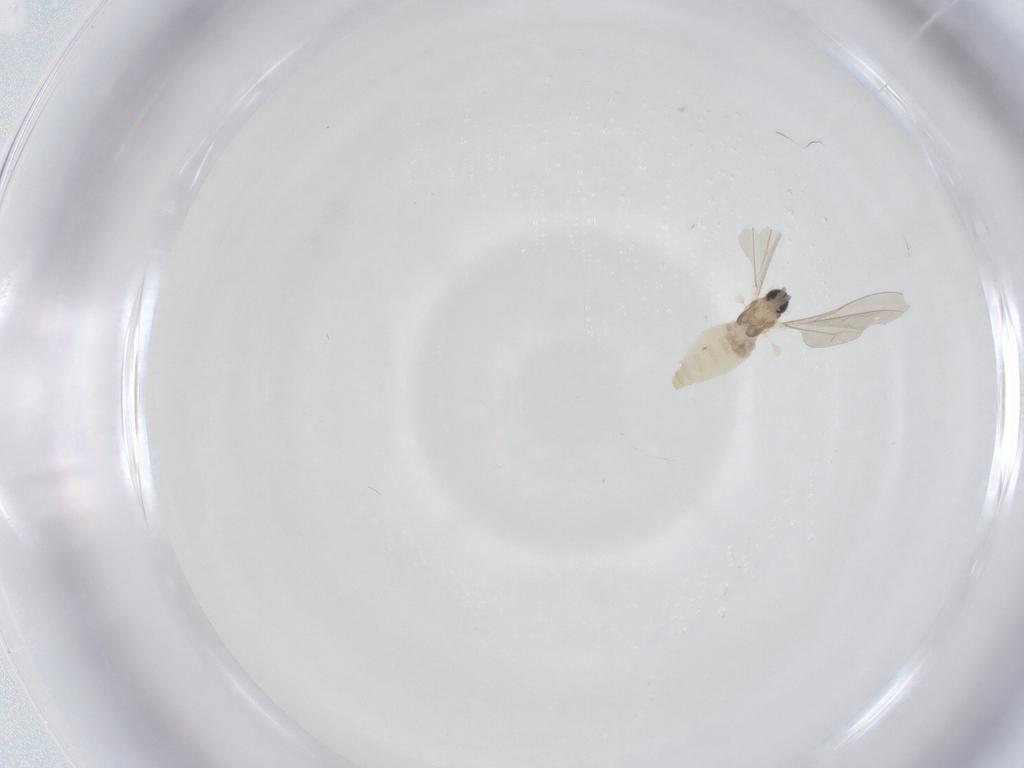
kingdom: Animalia
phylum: Arthropoda
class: Insecta
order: Diptera
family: Cecidomyiidae
